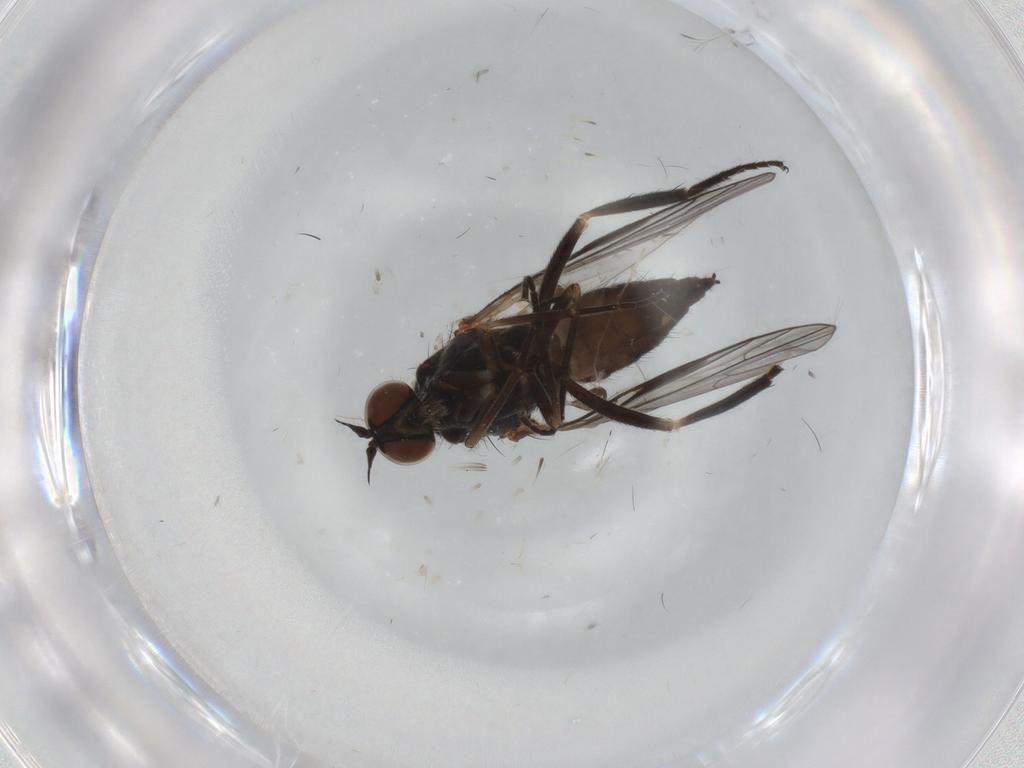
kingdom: Animalia
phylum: Arthropoda
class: Insecta
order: Diptera
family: Empididae
